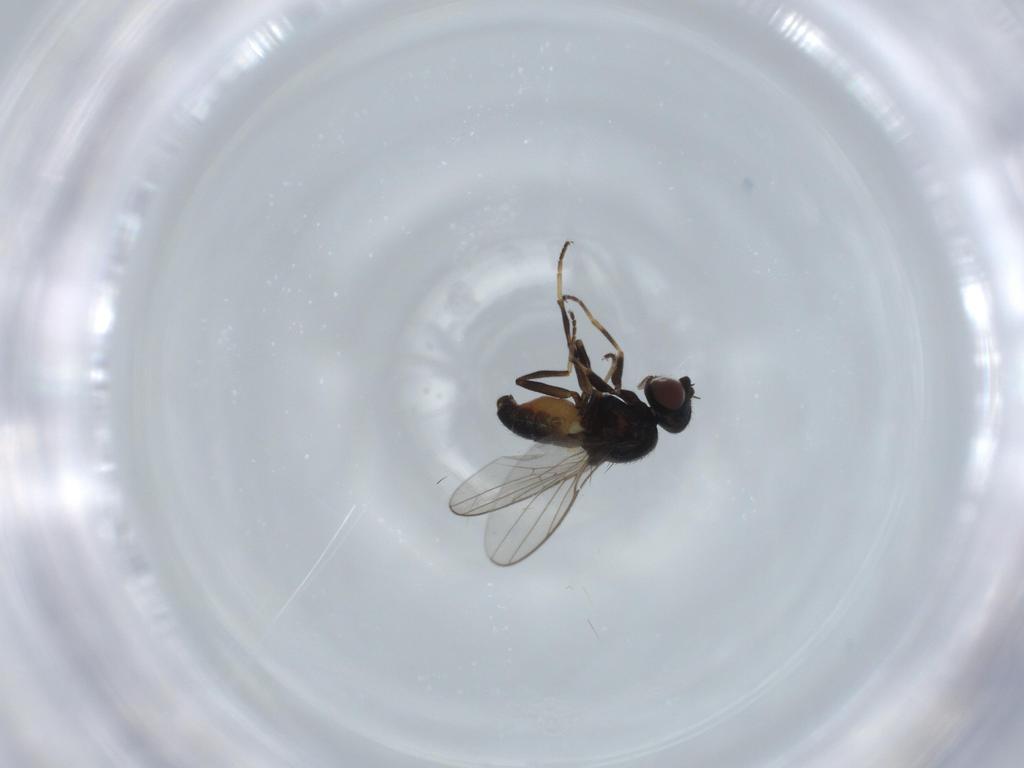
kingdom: Animalia
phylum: Arthropoda
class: Insecta
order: Diptera
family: Chloropidae
